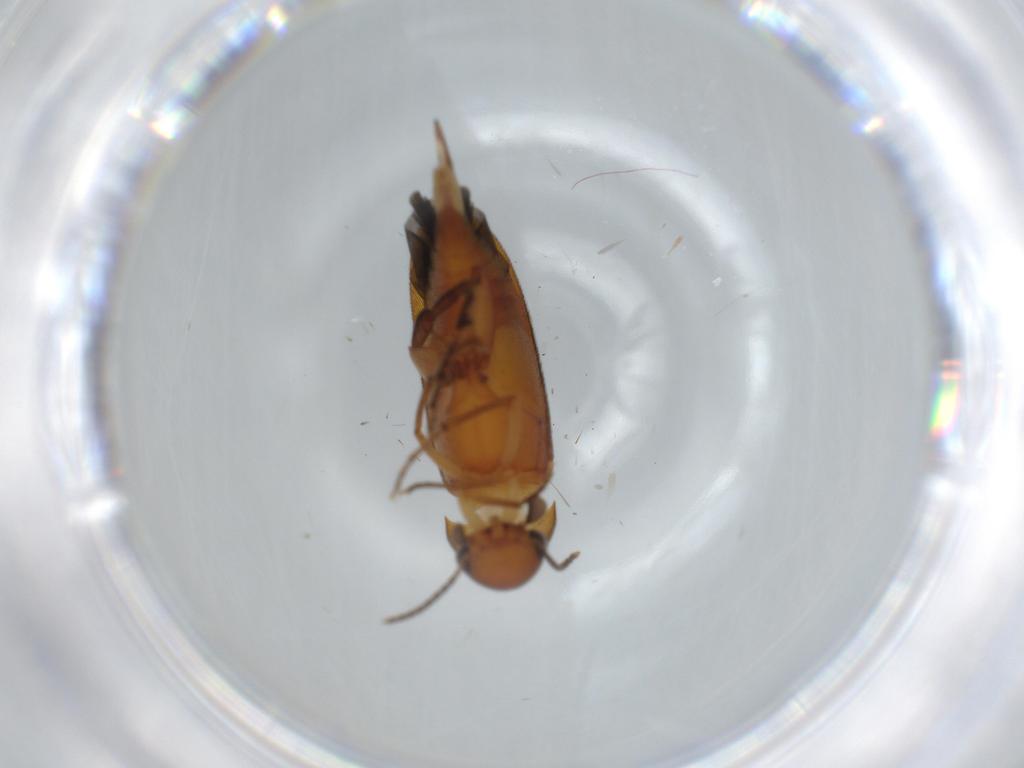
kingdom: Animalia
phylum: Arthropoda
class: Insecta
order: Coleoptera
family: Mordellidae
